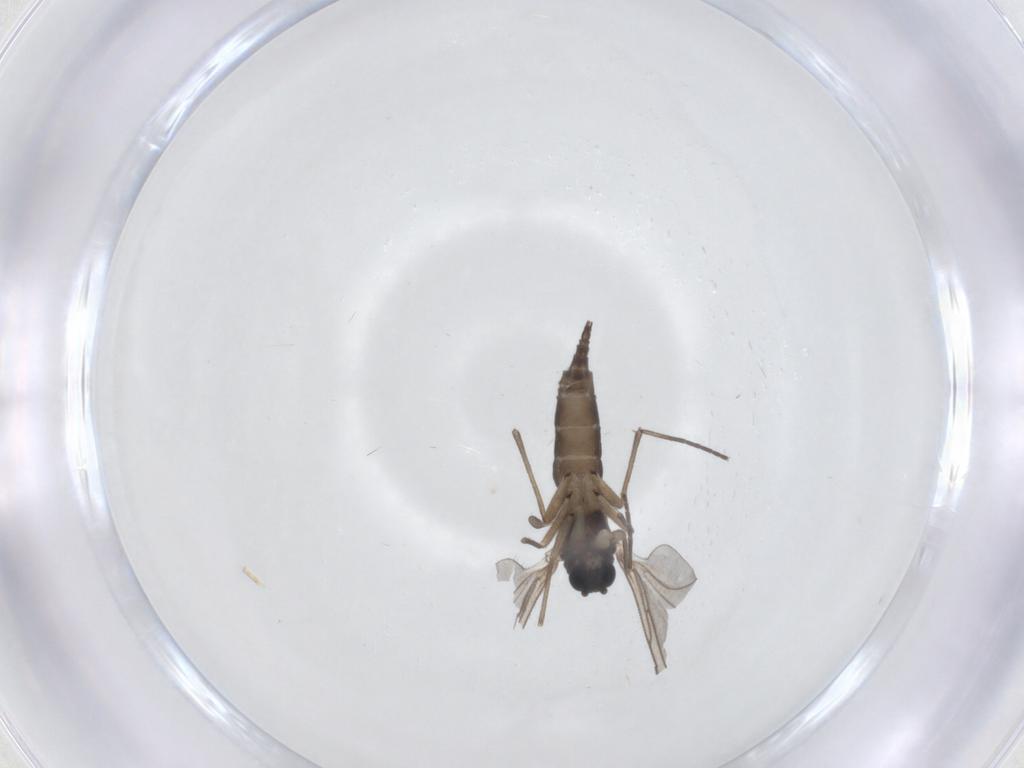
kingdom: Animalia
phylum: Arthropoda
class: Insecta
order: Diptera
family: Sciaridae
